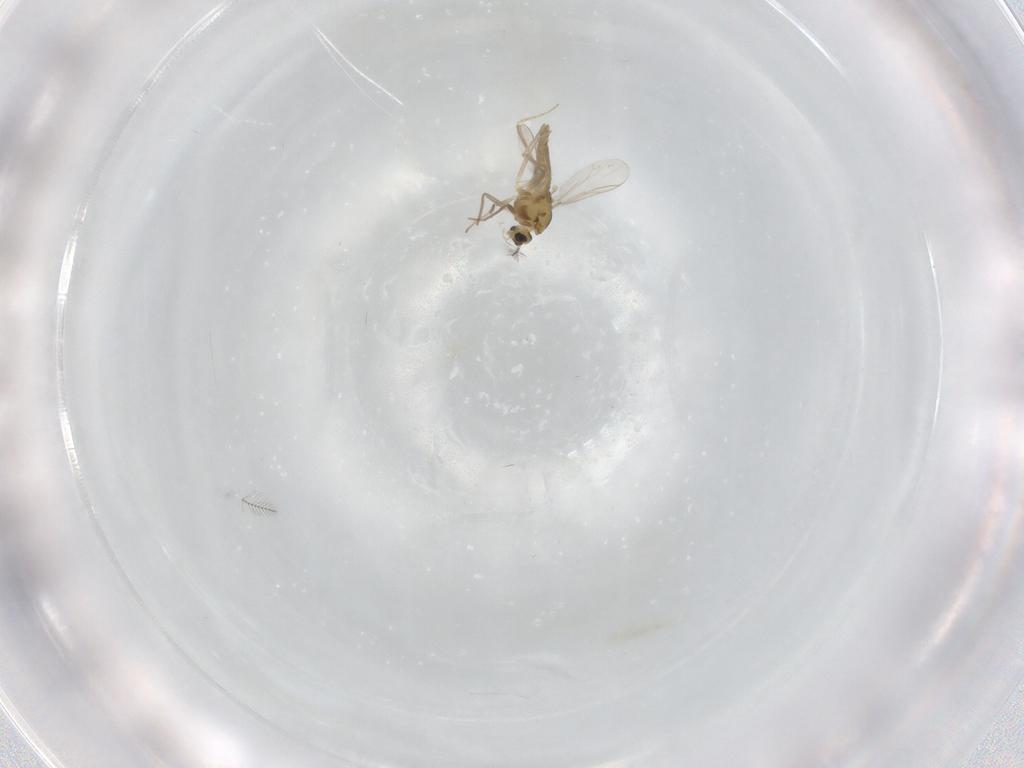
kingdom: Animalia
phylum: Arthropoda
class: Insecta
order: Diptera
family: Chironomidae
